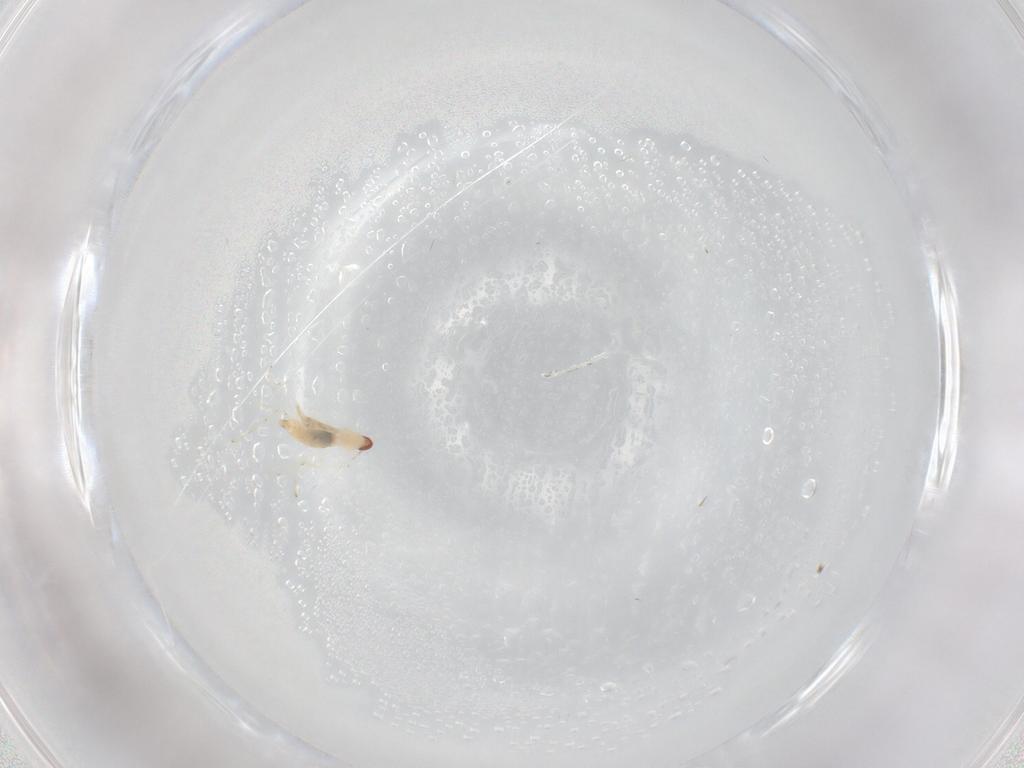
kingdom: Animalia
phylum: Arthropoda
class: Insecta
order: Diptera
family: Cecidomyiidae
